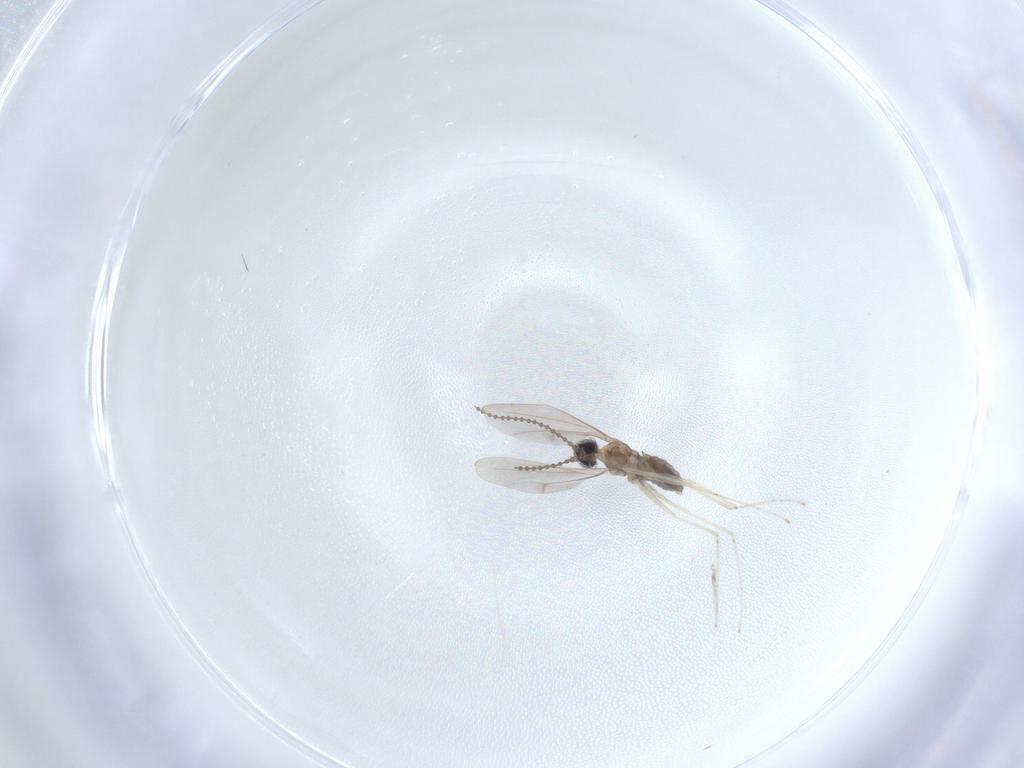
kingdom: Animalia
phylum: Arthropoda
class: Insecta
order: Diptera
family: Cecidomyiidae
